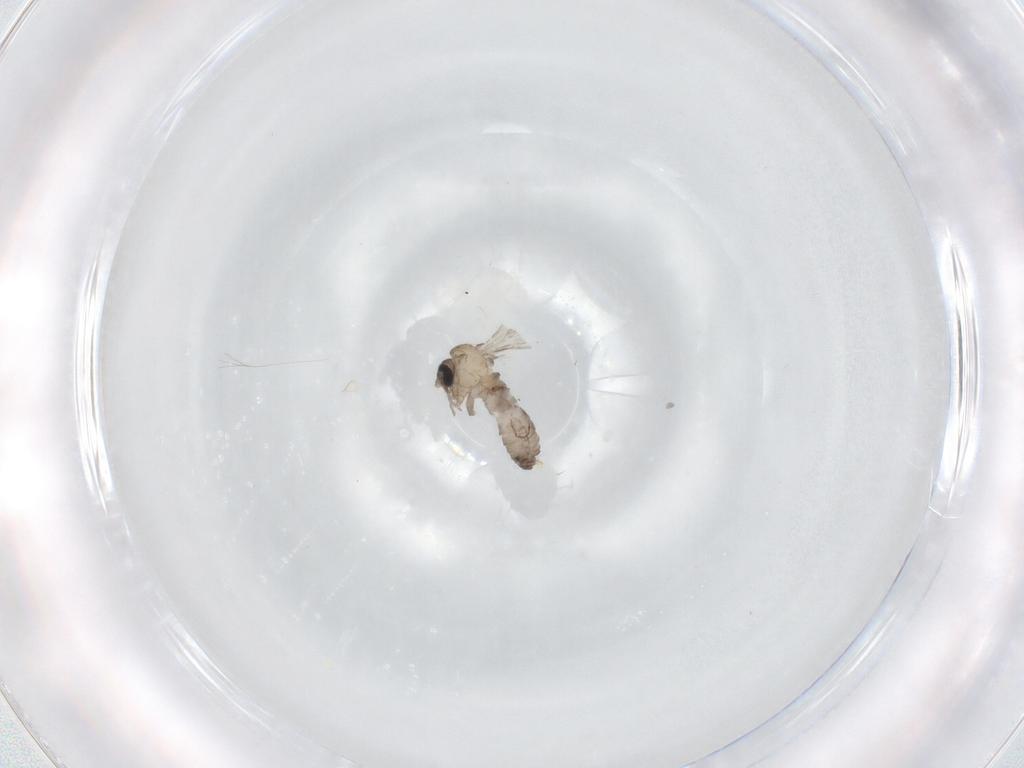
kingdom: Animalia
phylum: Arthropoda
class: Insecta
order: Diptera
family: Psychodidae
